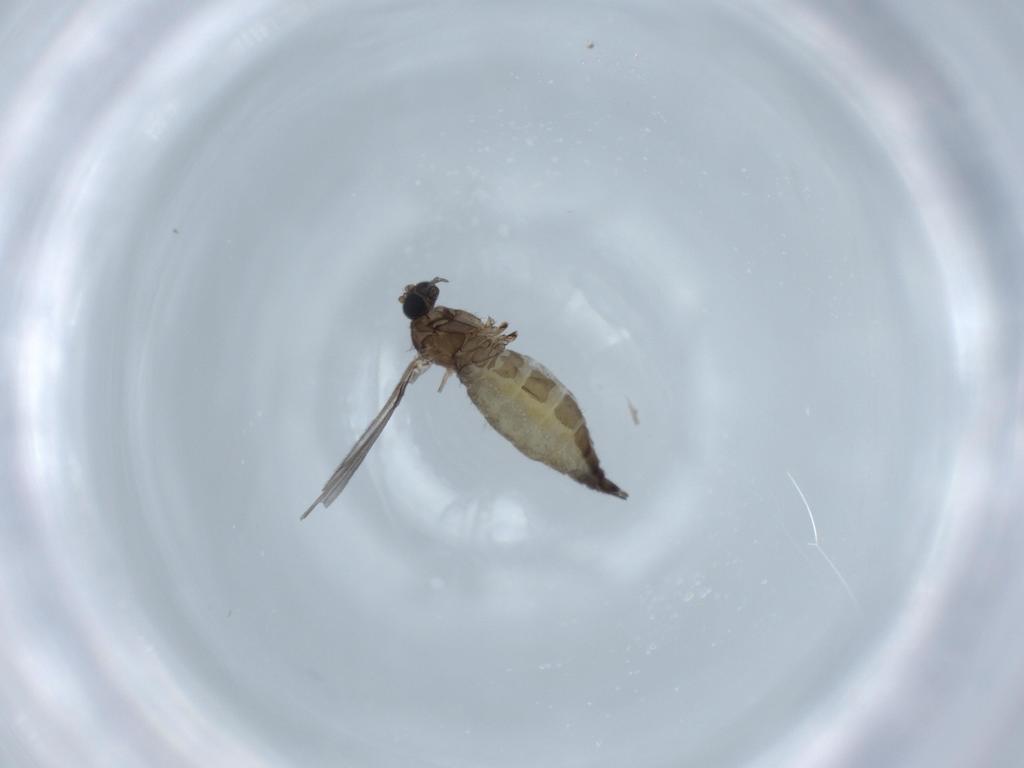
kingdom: Animalia
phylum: Arthropoda
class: Insecta
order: Diptera
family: Sciaridae
